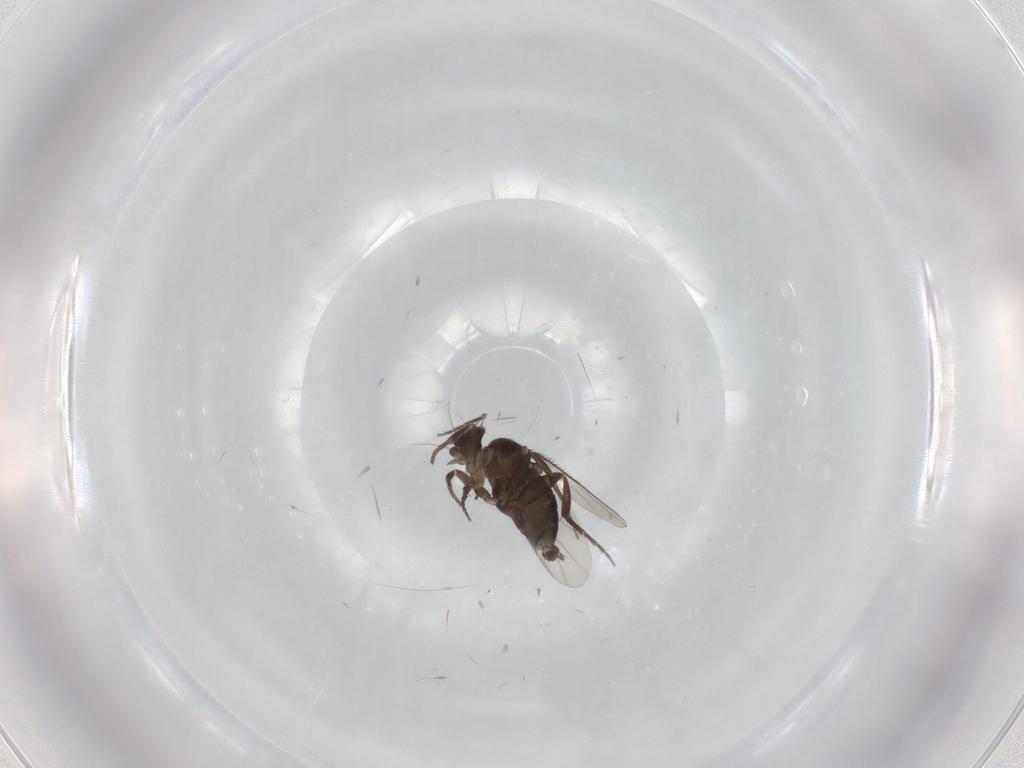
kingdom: Animalia
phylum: Arthropoda
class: Insecta
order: Diptera
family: Phoridae
